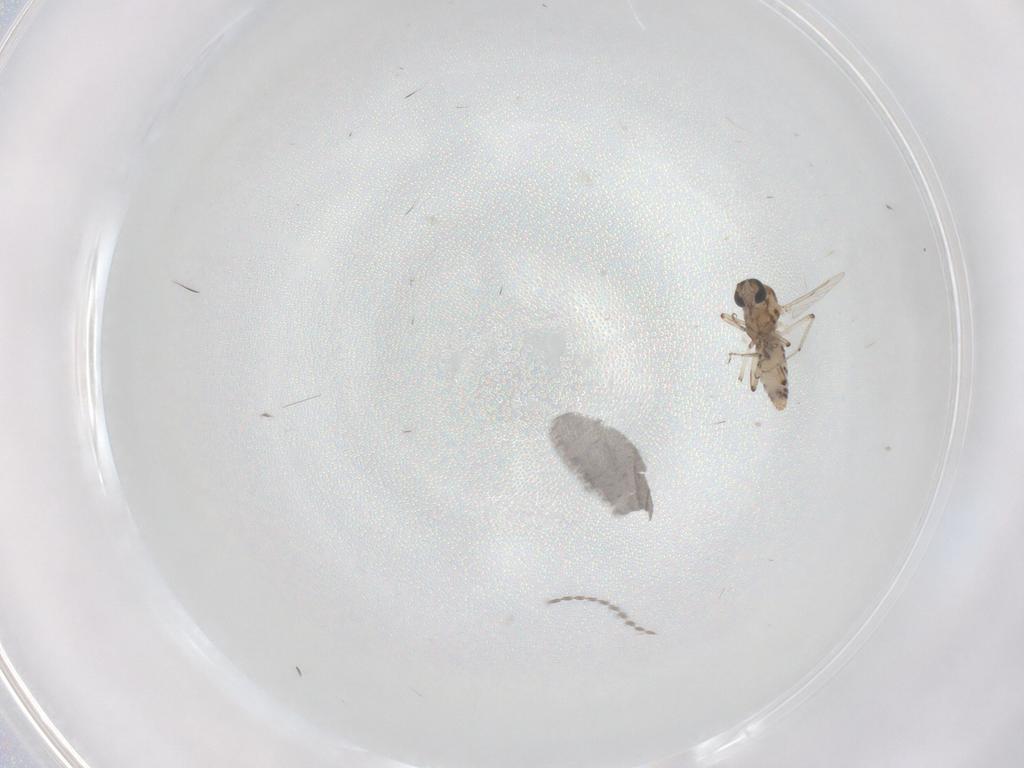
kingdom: Animalia
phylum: Arthropoda
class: Insecta
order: Diptera
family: Ceratopogonidae
